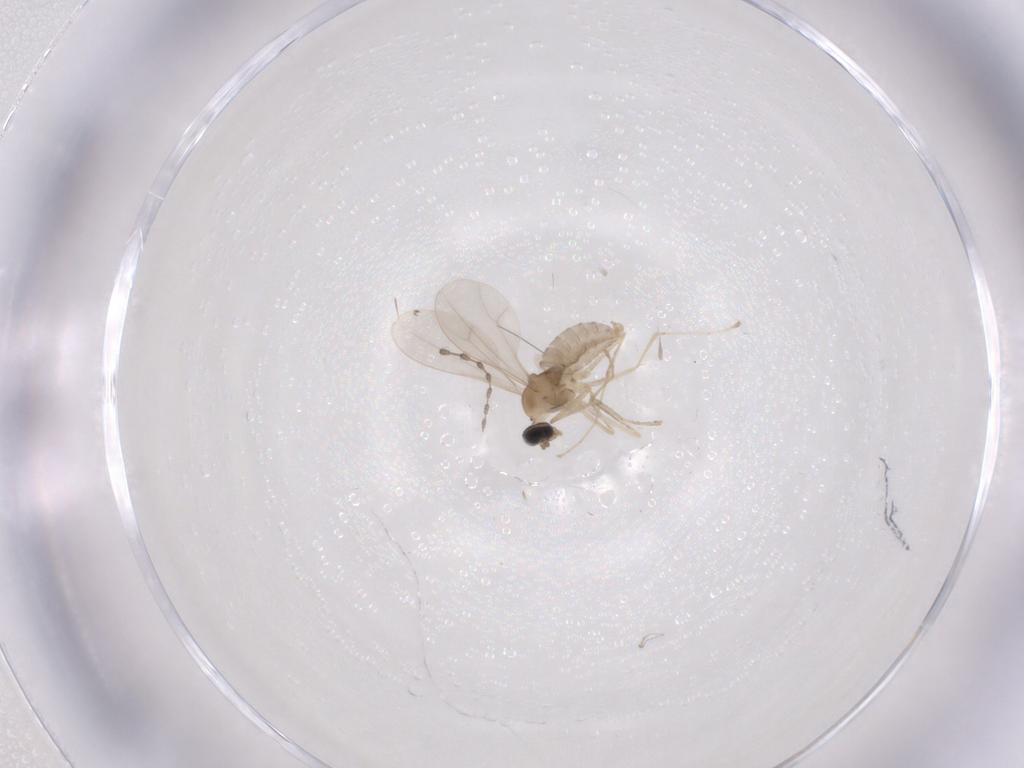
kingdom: Animalia
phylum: Arthropoda
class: Insecta
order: Diptera
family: Cecidomyiidae
